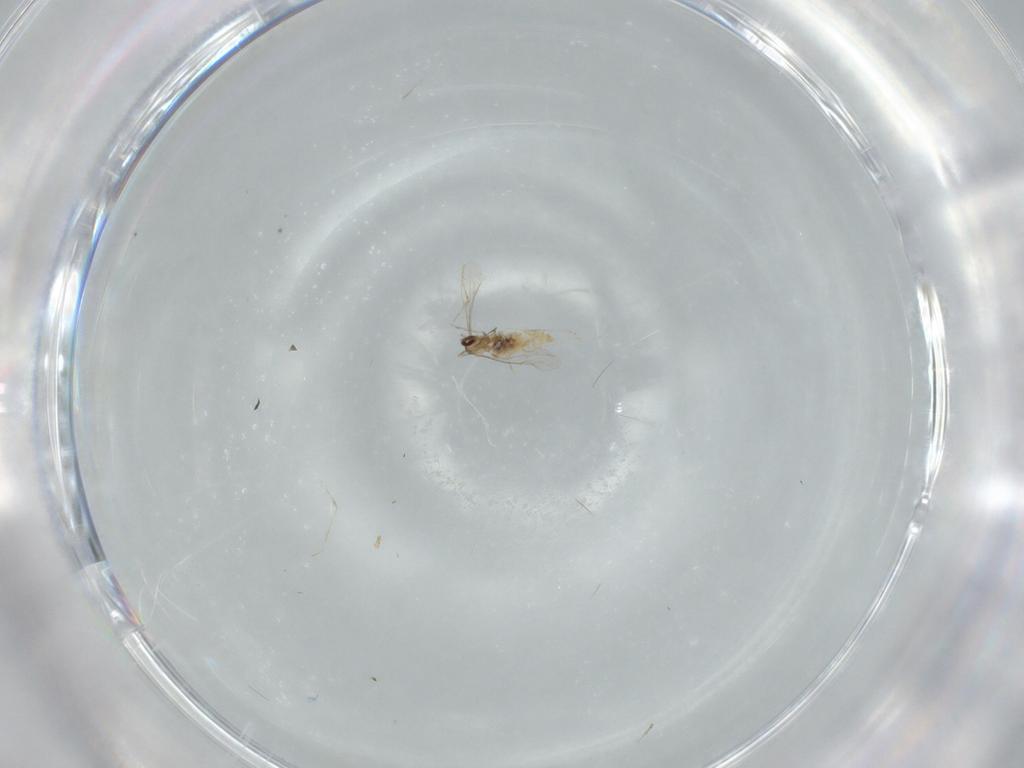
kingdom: Animalia
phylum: Arthropoda
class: Insecta
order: Diptera
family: Cecidomyiidae
